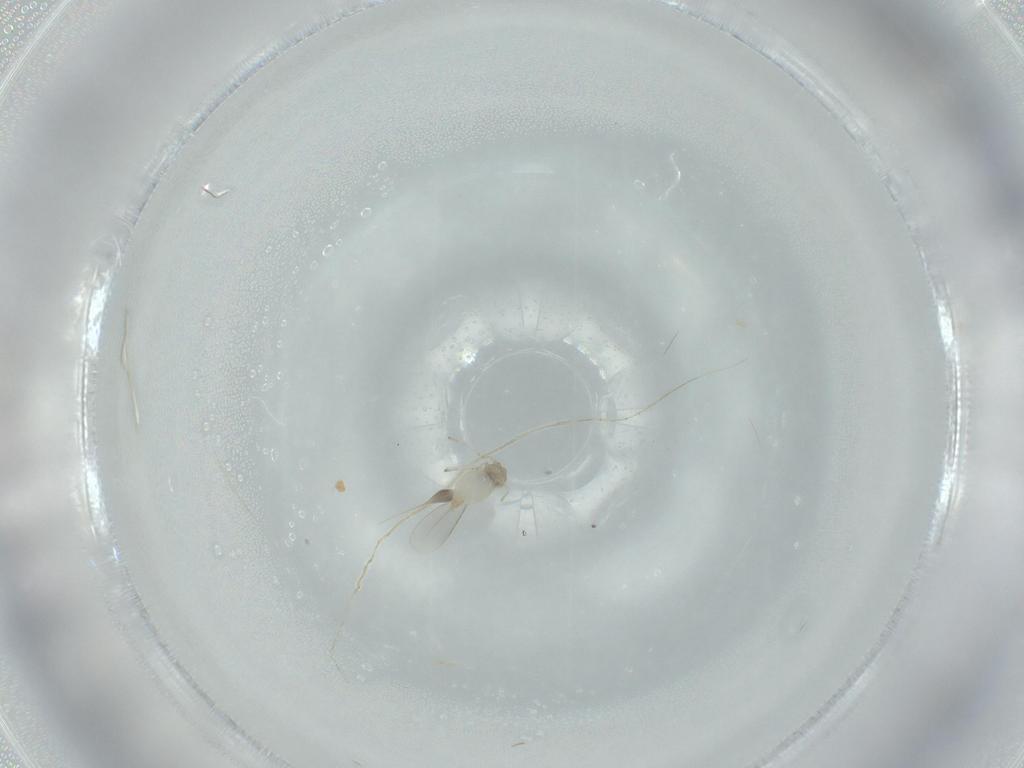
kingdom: Animalia
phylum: Arthropoda
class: Insecta
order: Diptera
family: Cecidomyiidae
